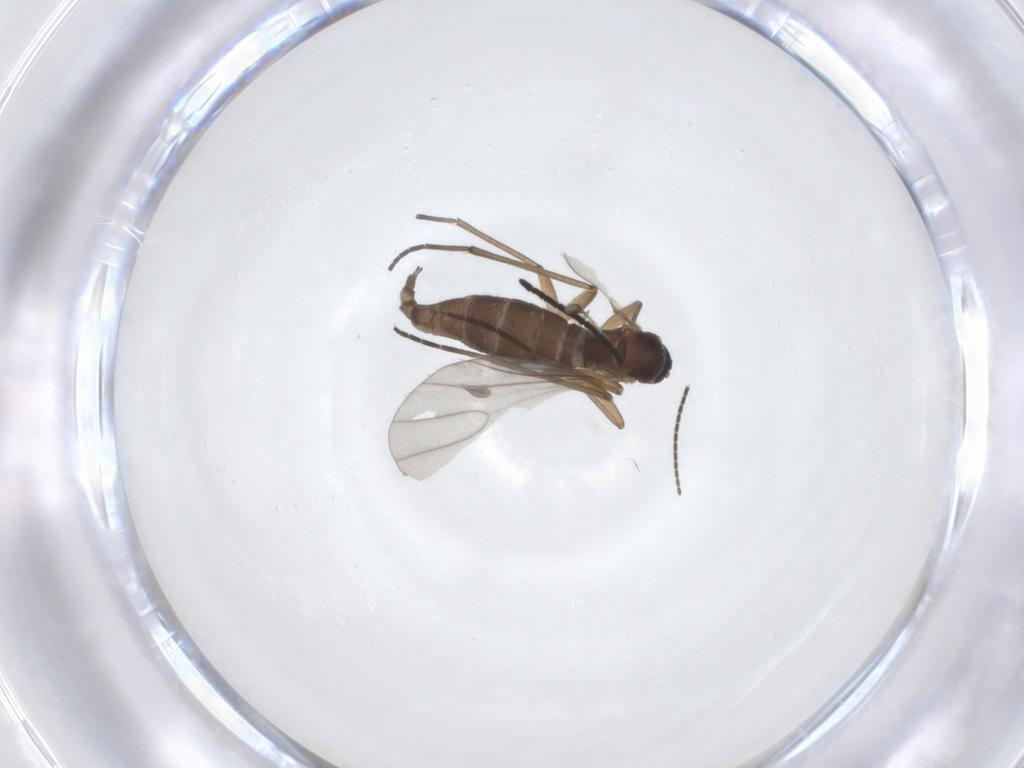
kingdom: Animalia
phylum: Arthropoda
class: Insecta
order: Diptera
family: Sciaridae
